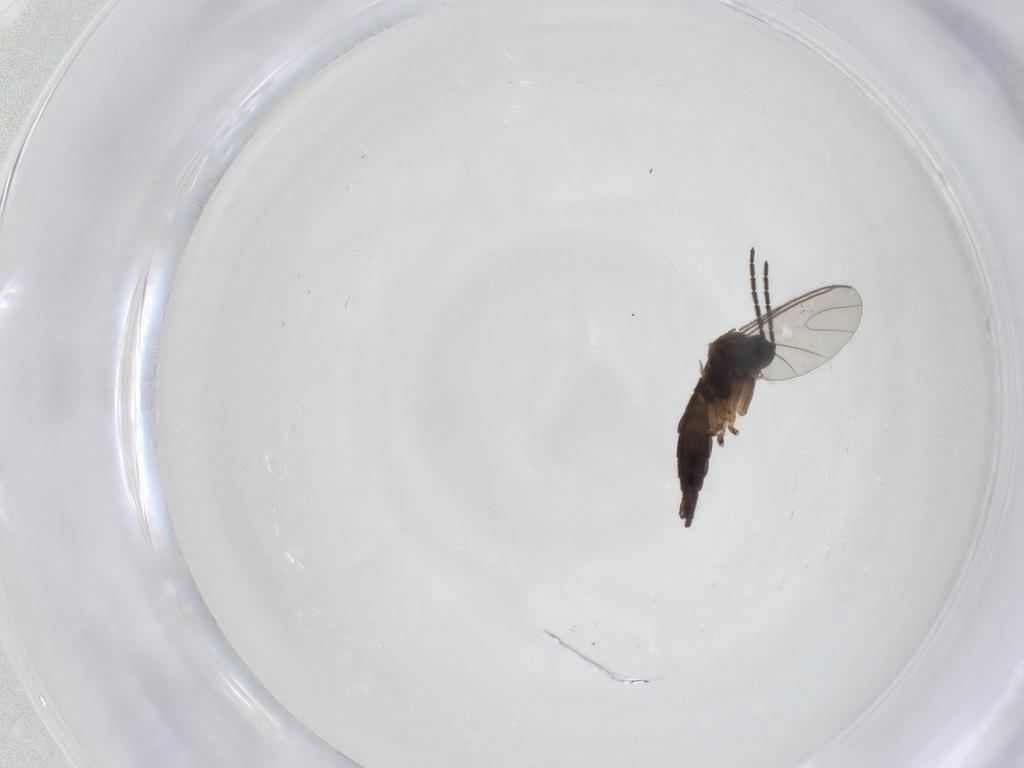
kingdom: Animalia
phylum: Arthropoda
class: Insecta
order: Diptera
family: Sciaridae
